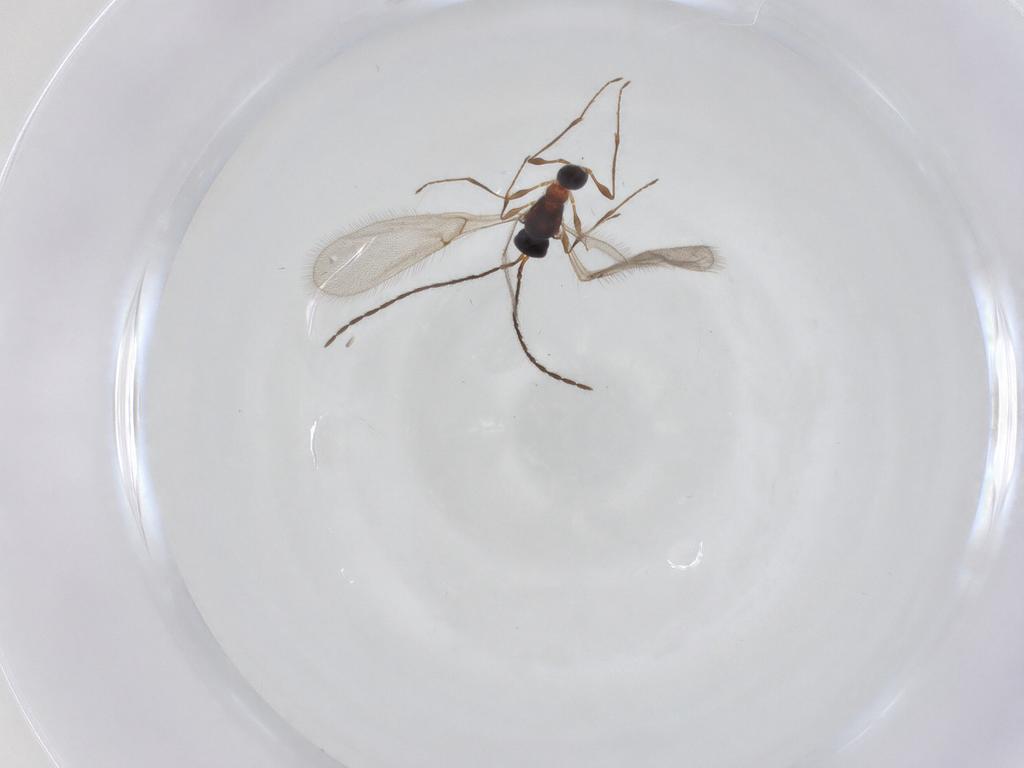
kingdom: Animalia
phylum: Arthropoda
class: Insecta
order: Hymenoptera
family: Diapriidae
